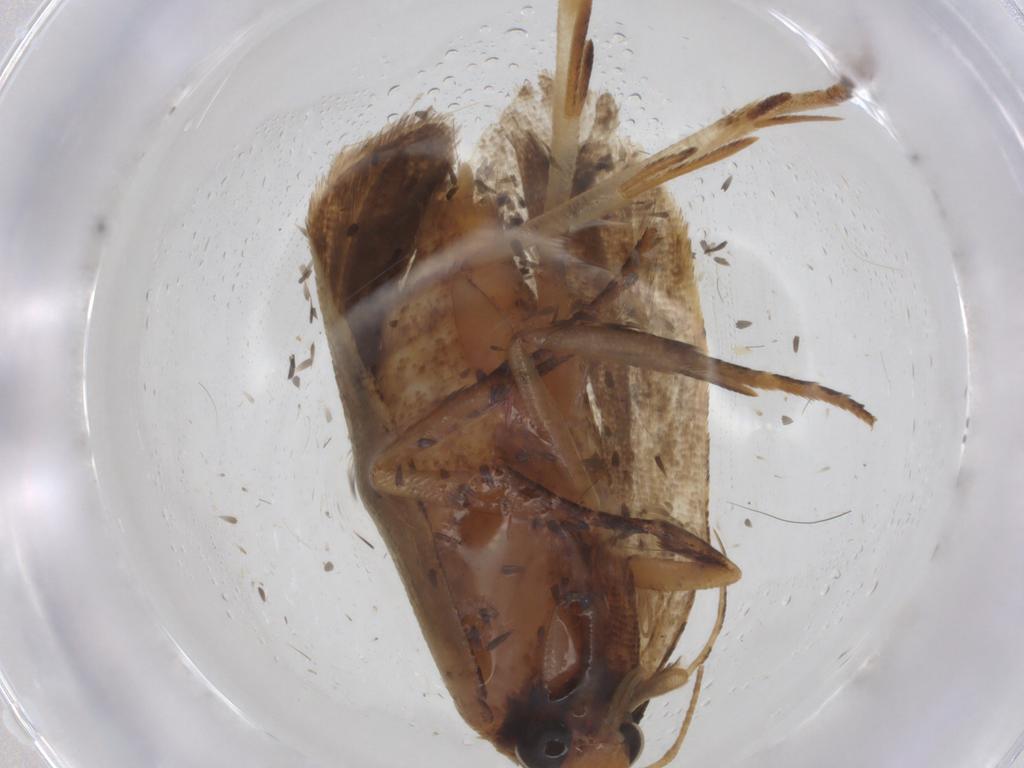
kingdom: Animalia
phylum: Arthropoda
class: Insecta
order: Lepidoptera
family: Gelechiidae
